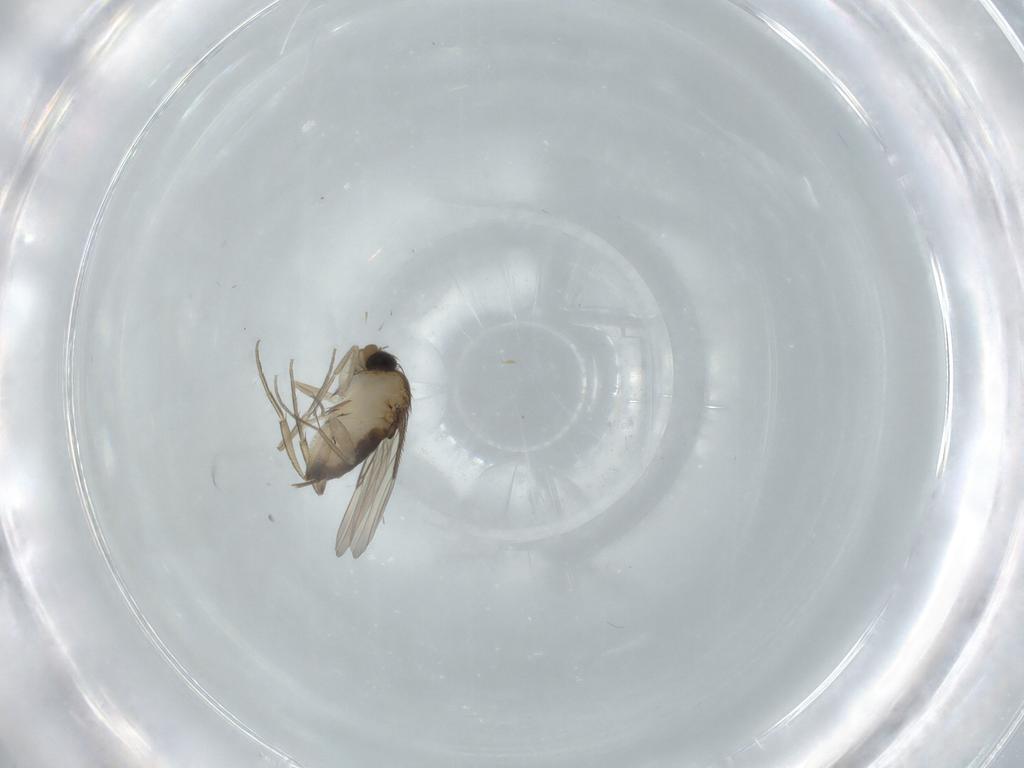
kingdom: Animalia
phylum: Arthropoda
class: Insecta
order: Diptera
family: Phoridae
